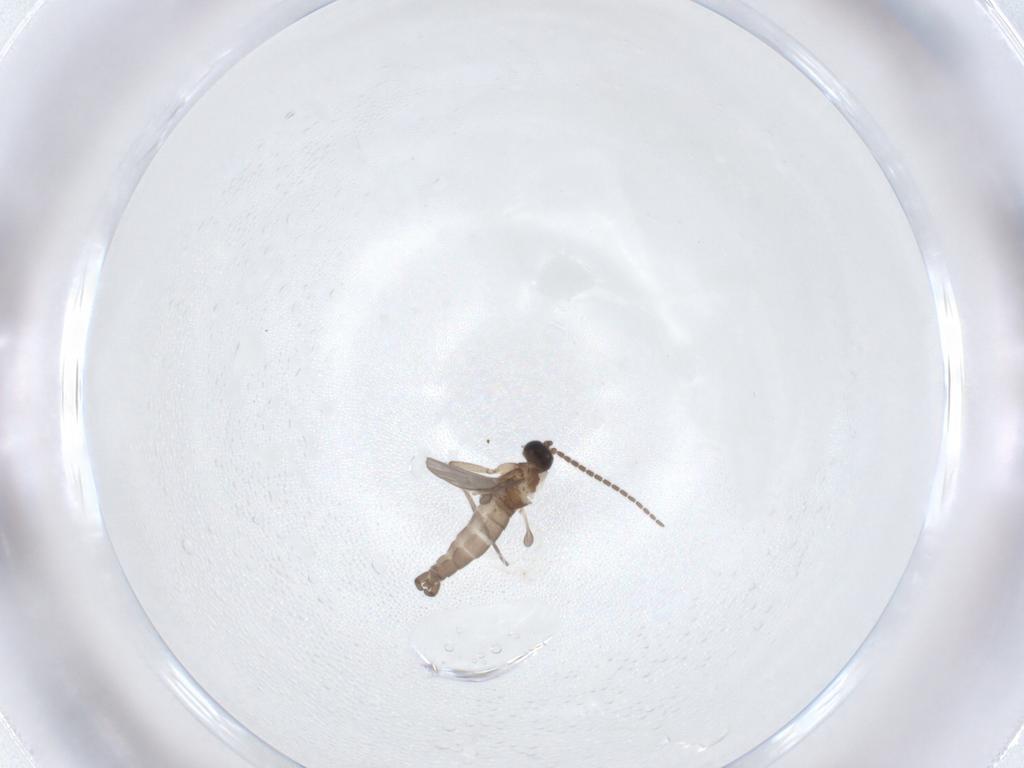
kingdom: Animalia
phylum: Arthropoda
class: Insecta
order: Diptera
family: Sciaridae
